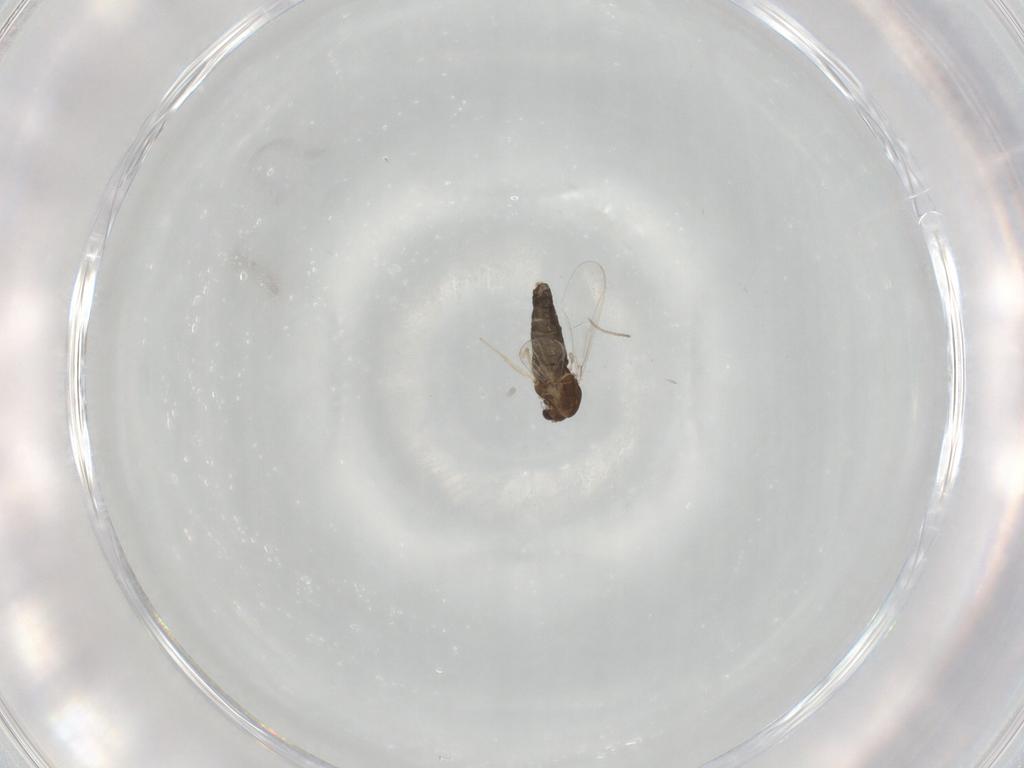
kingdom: Animalia
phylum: Arthropoda
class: Insecta
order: Diptera
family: Chironomidae
